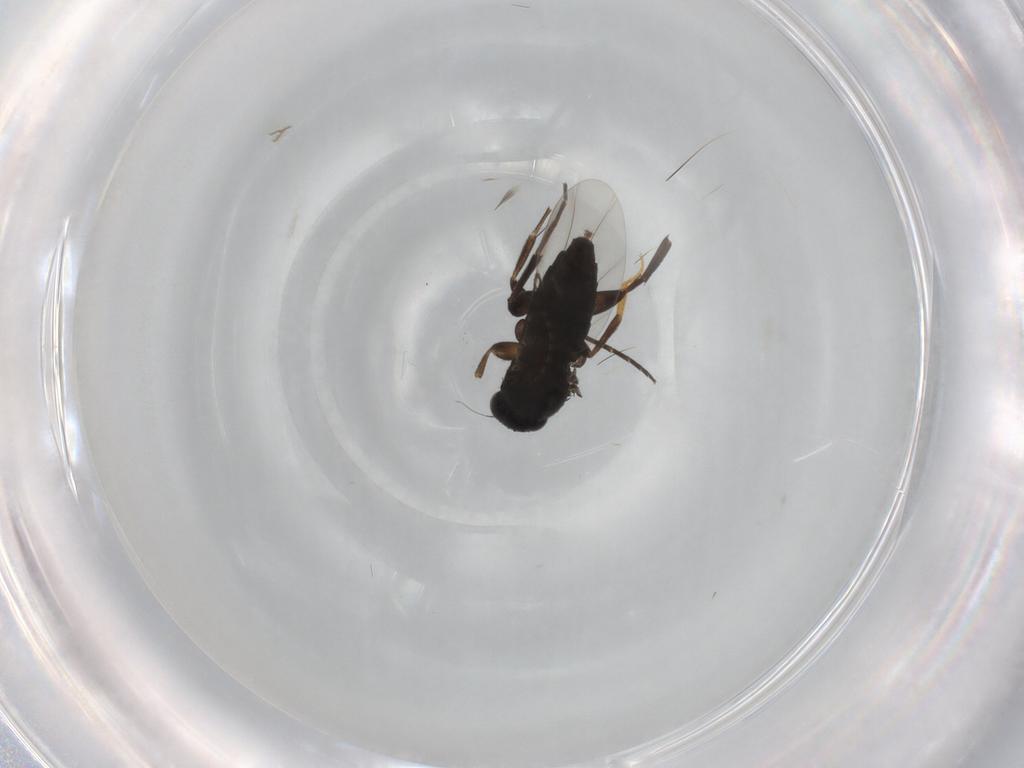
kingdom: Animalia
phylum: Arthropoda
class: Insecta
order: Diptera
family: Phoridae
